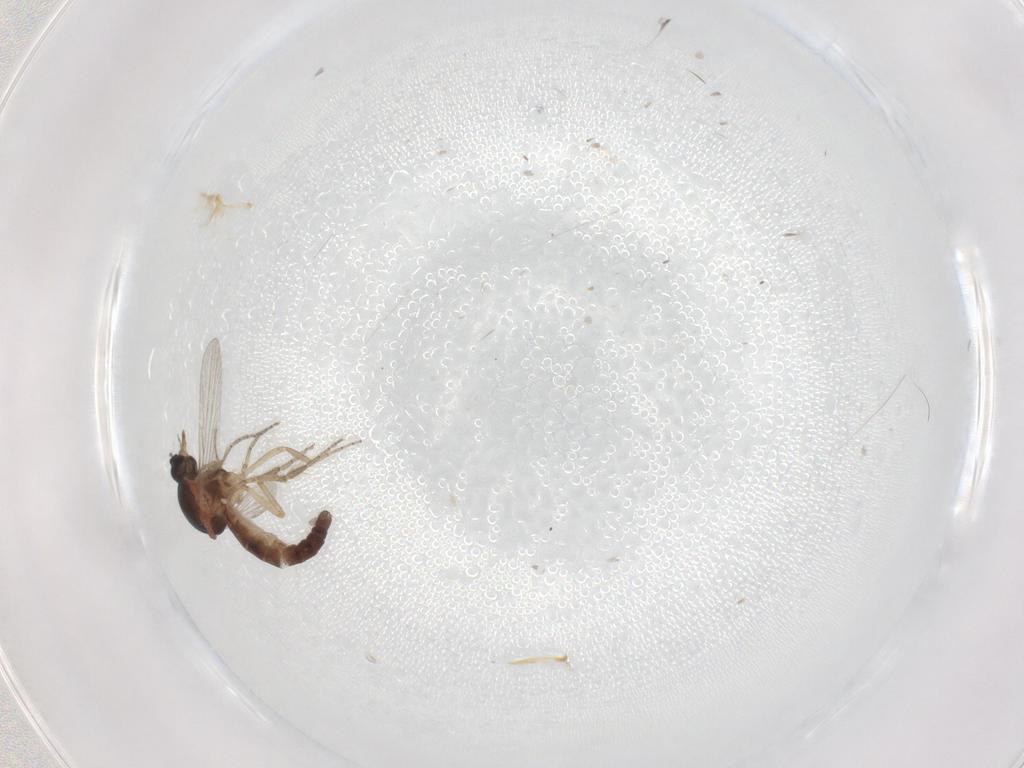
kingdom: Animalia
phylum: Arthropoda
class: Insecta
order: Diptera
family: Ceratopogonidae
